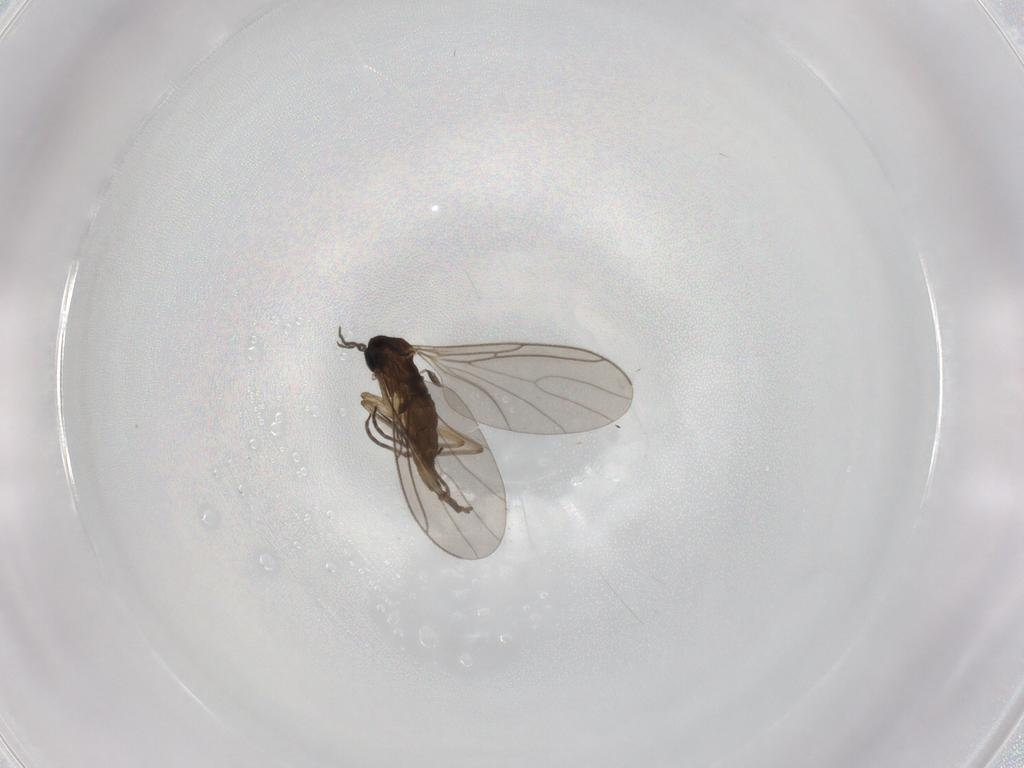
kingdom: Animalia
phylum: Arthropoda
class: Insecta
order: Diptera
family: Sciaridae
